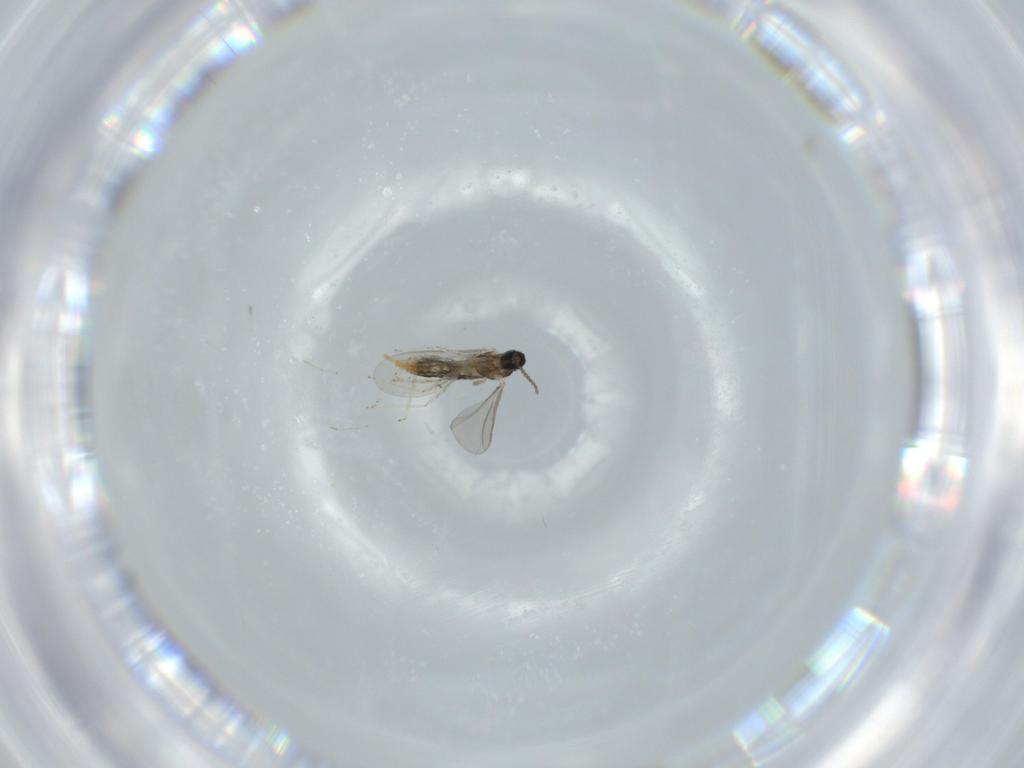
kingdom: Animalia
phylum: Arthropoda
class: Insecta
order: Diptera
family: Cecidomyiidae
